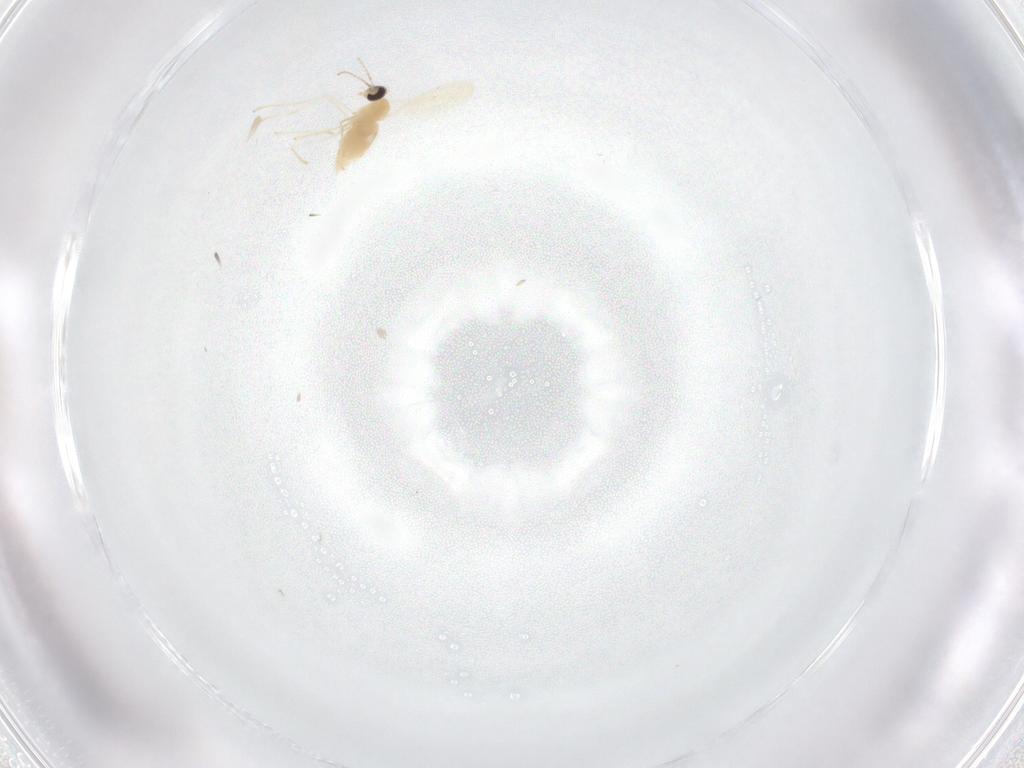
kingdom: Animalia
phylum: Arthropoda
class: Insecta
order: Diptera
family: Cecidomyiidae
